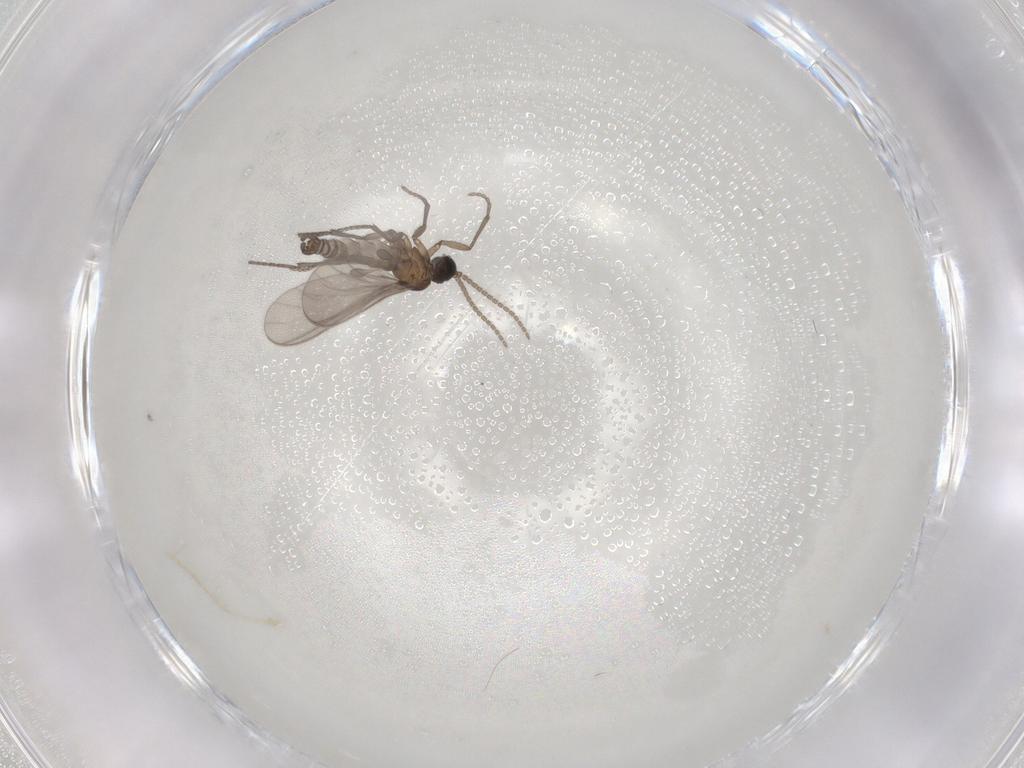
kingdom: Animalia
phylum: Arthropoda
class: Insecta
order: Diptera
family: Sciaridae
